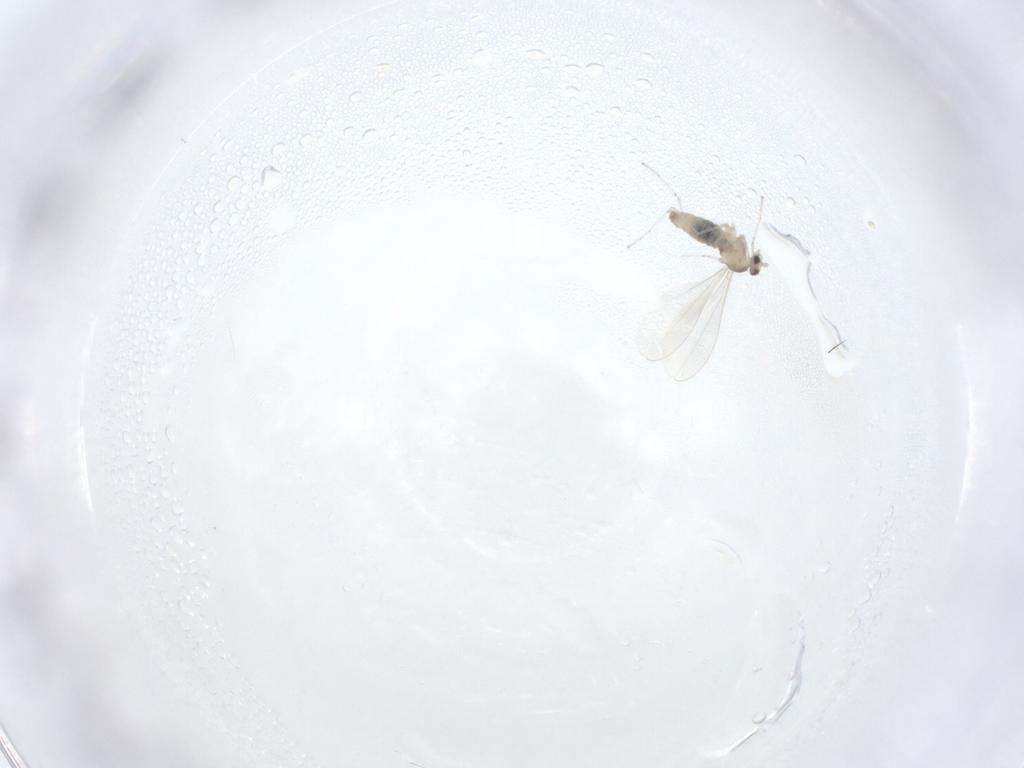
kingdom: Animalia
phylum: Arthropoda
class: Insecta
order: Diptera
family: Cecidomyiidae
